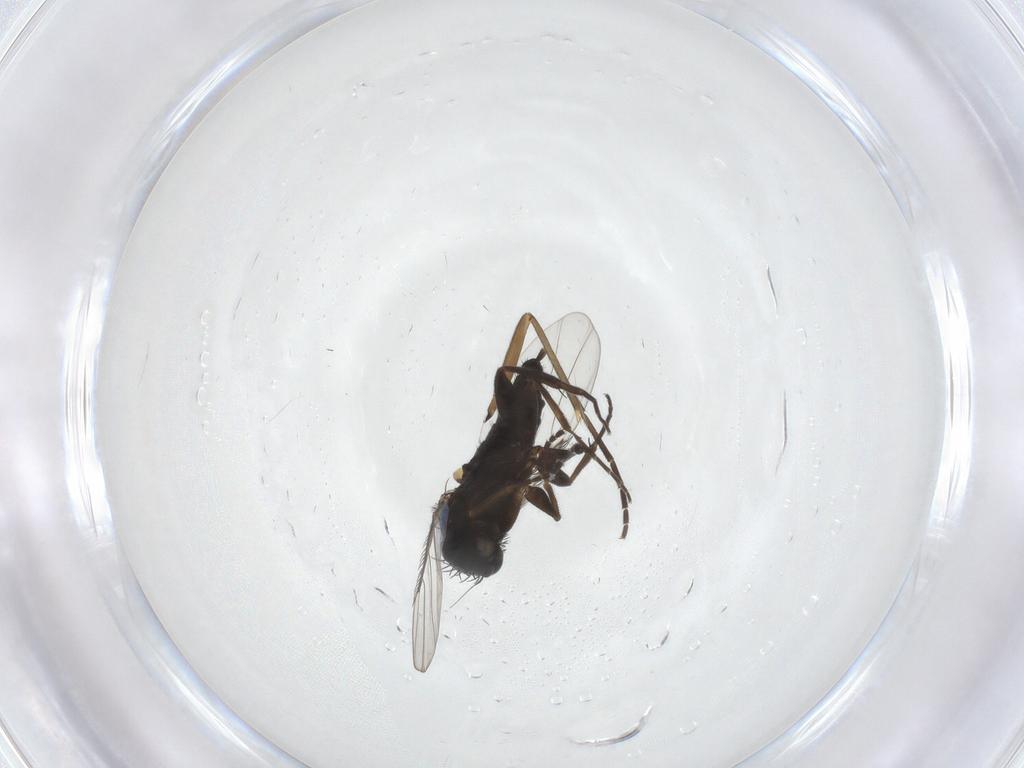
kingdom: Animalia
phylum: Arthropoda
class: Insecta
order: Diptera
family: Phoridae
